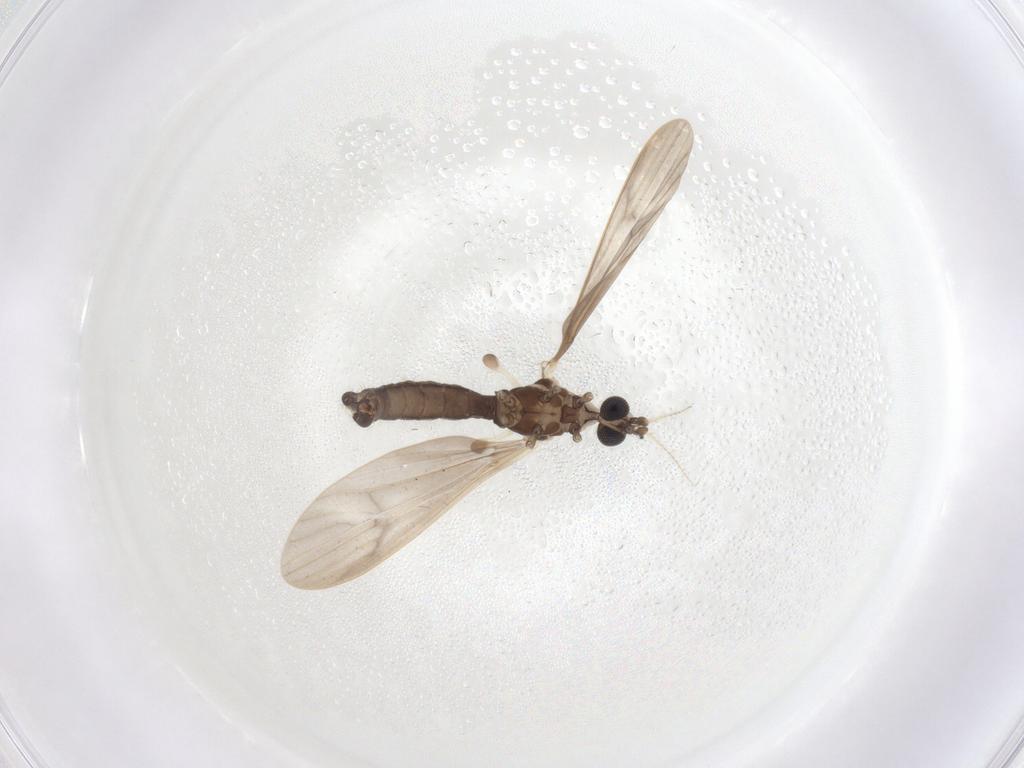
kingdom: Animalia
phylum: Arthropoda
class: Insecta
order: Diptera
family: Limoniidae
